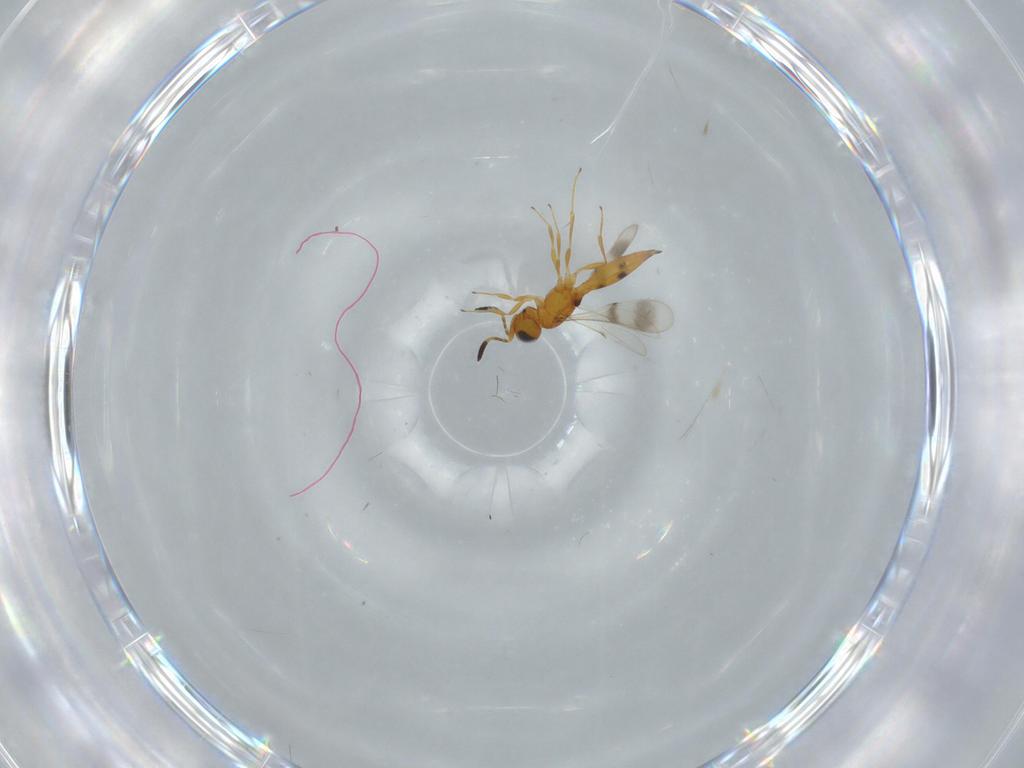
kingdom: Animalia
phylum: Arthropoda
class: Insecta
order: Hymenoptera
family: Scelionidae
